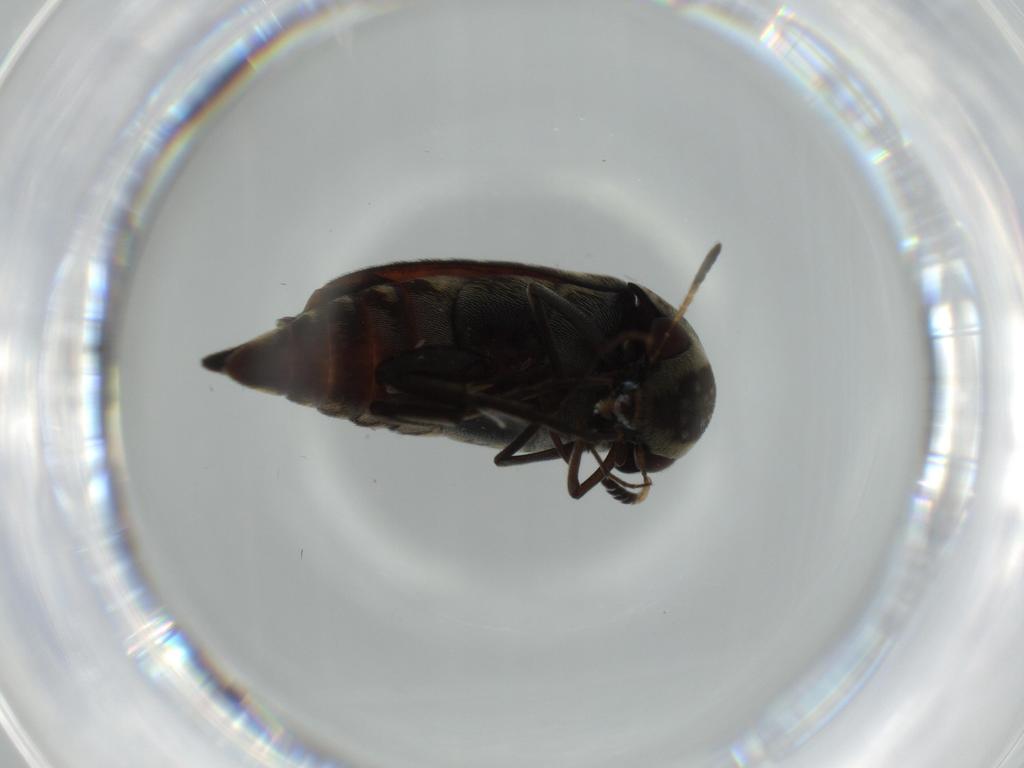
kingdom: Animalia
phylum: Arthropoda
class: Insecta
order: Coleoptera
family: Chrysomelidae
